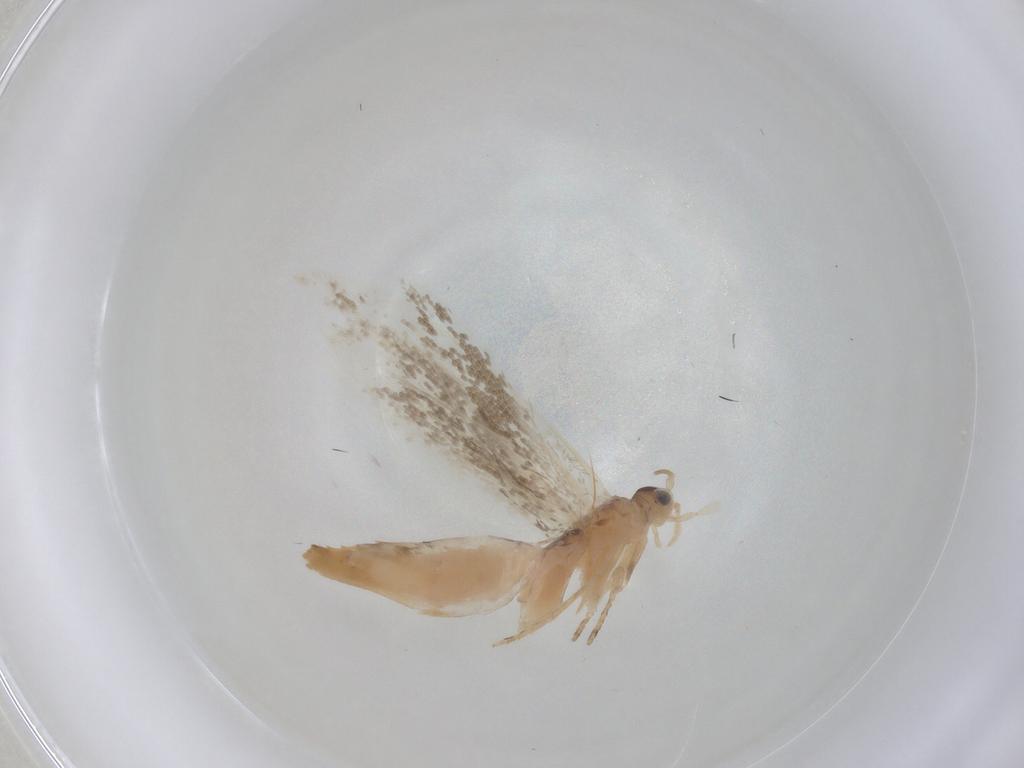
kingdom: Animalia
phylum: Arthropoda
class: Insecta
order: Lepidoptera
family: Dryadaulidae
